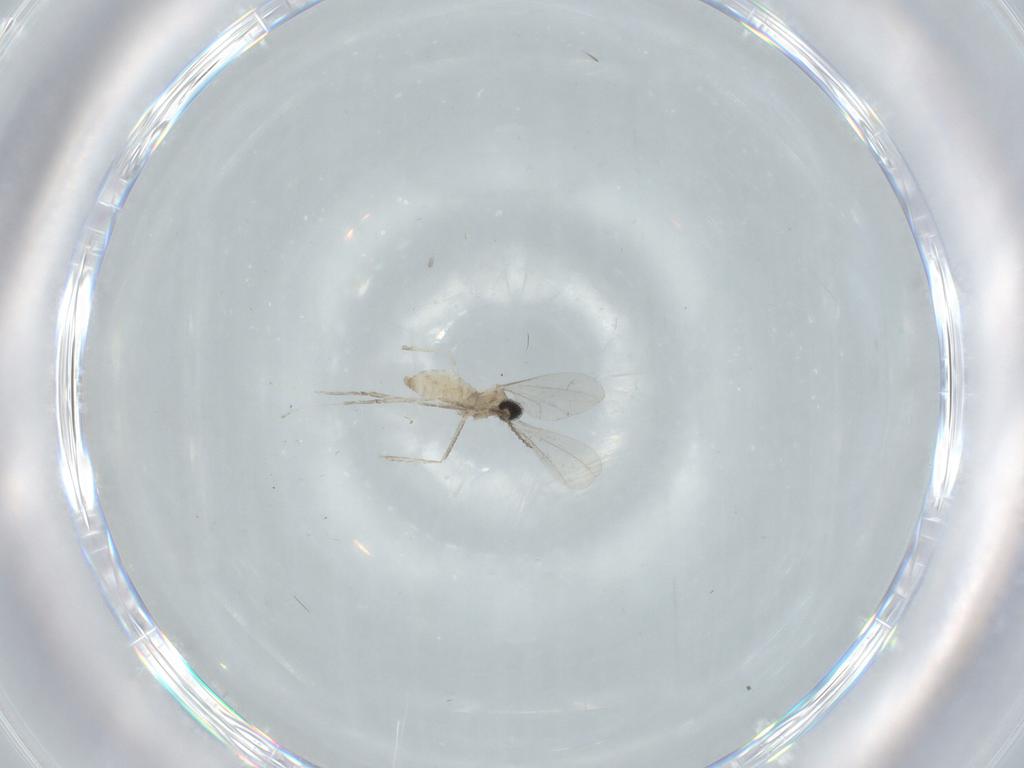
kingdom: Animalia
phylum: Arthropoda
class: Insecta
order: Diptera
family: Cecidomyiidae
